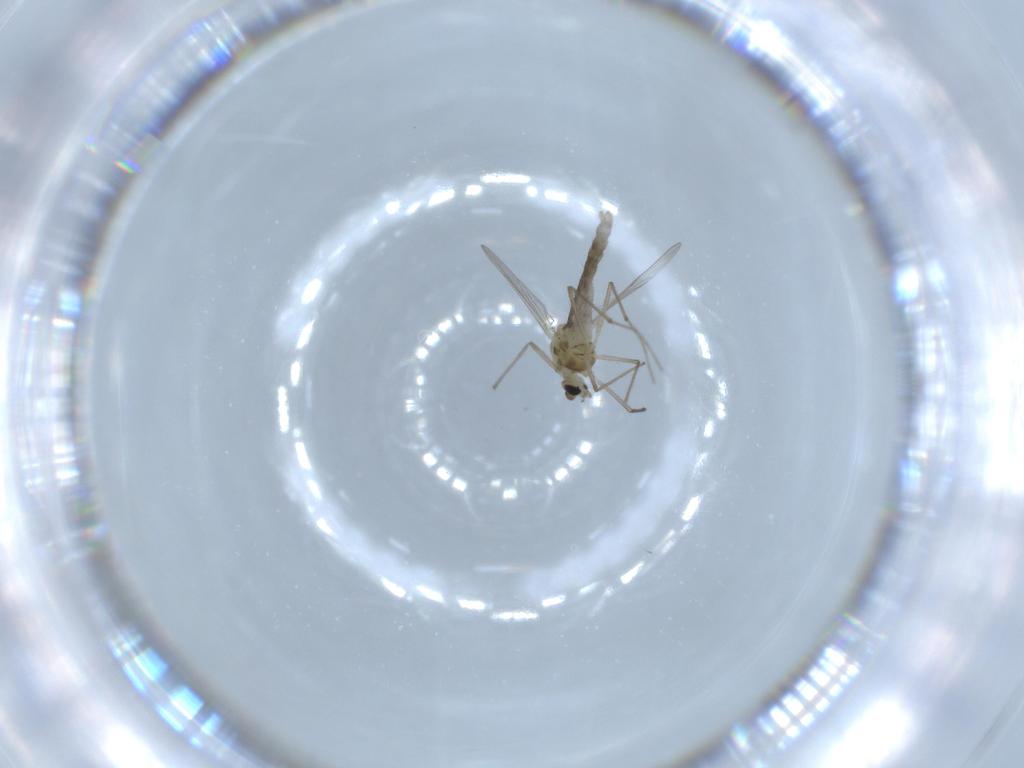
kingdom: Animalia
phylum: Arthropoda
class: Insecta
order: Diptera
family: Chironomidae
